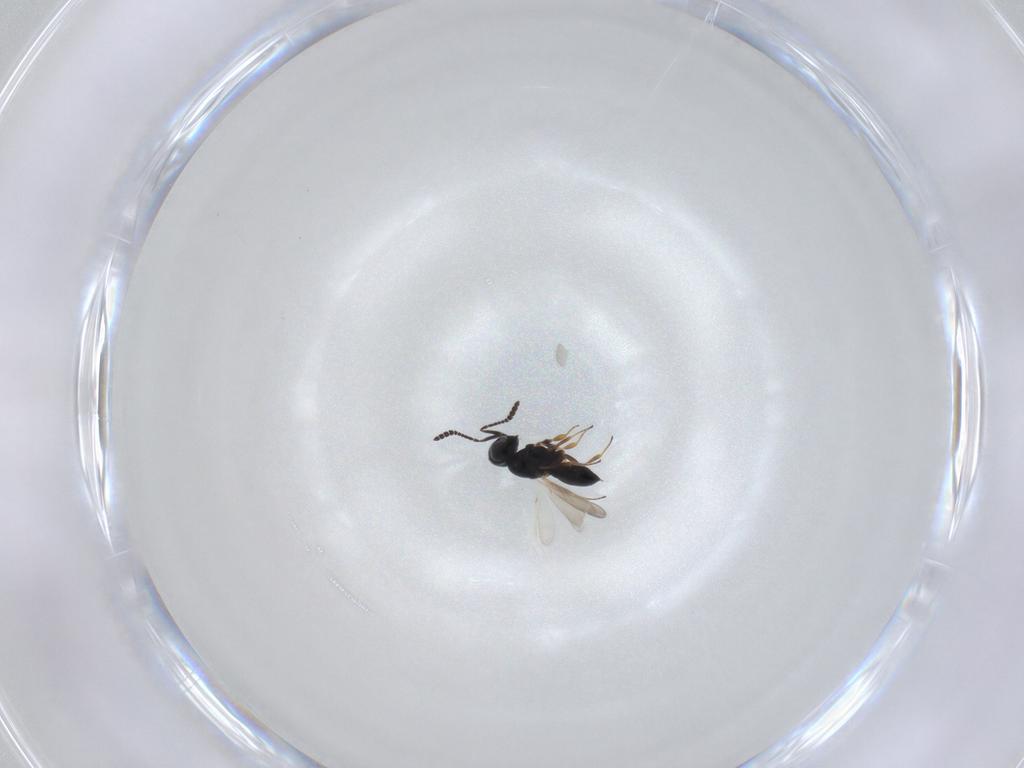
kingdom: Animalia
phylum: Arthropoda
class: Insecta
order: Hymenoptera
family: Scelionidae
